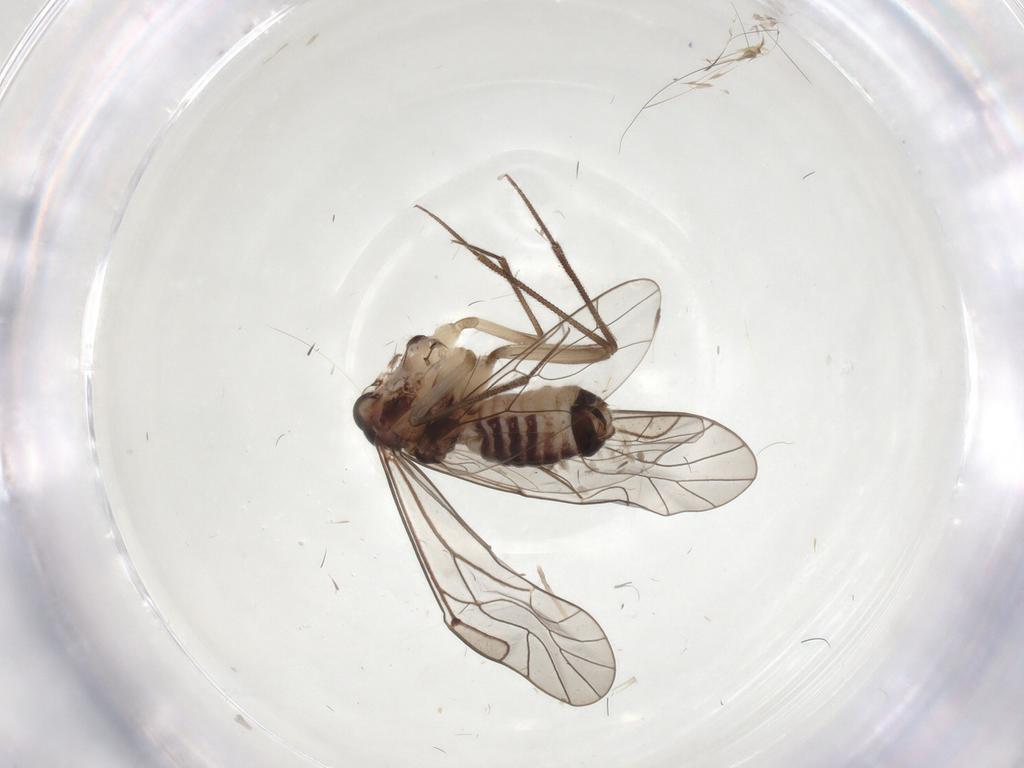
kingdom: Animalia
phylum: Arthropoda
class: Insecta
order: Psocodea
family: Lachesillidae
